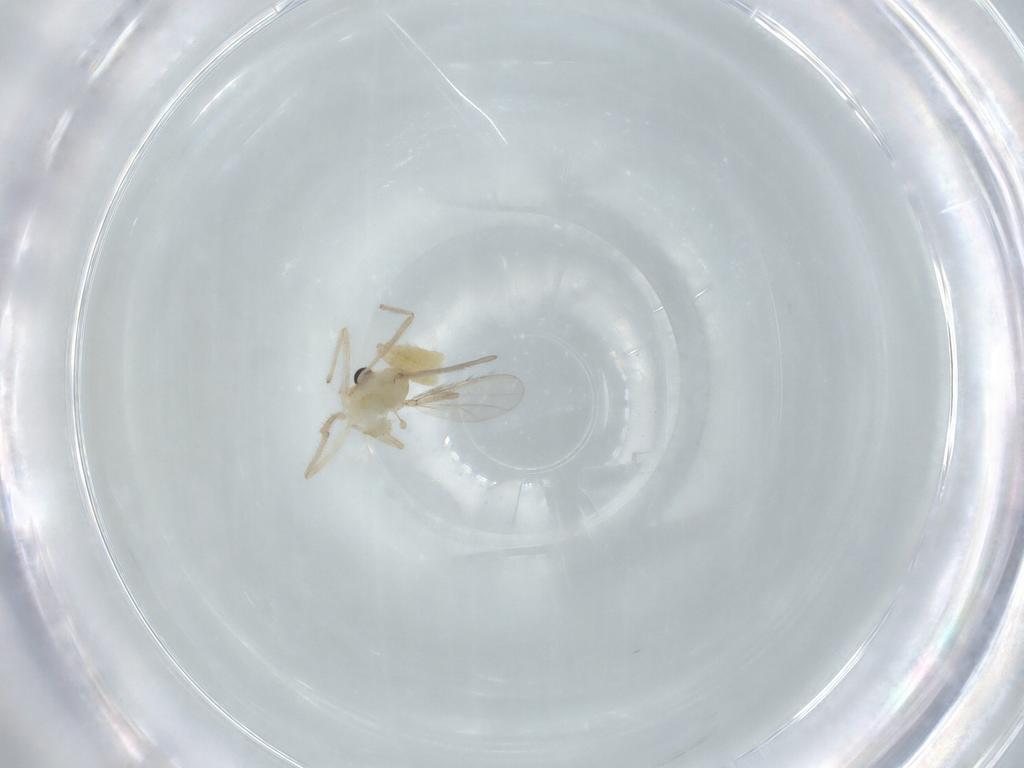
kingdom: Animalia
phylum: Arthropoda
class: Insecta
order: Diptera
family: Chironomidae
